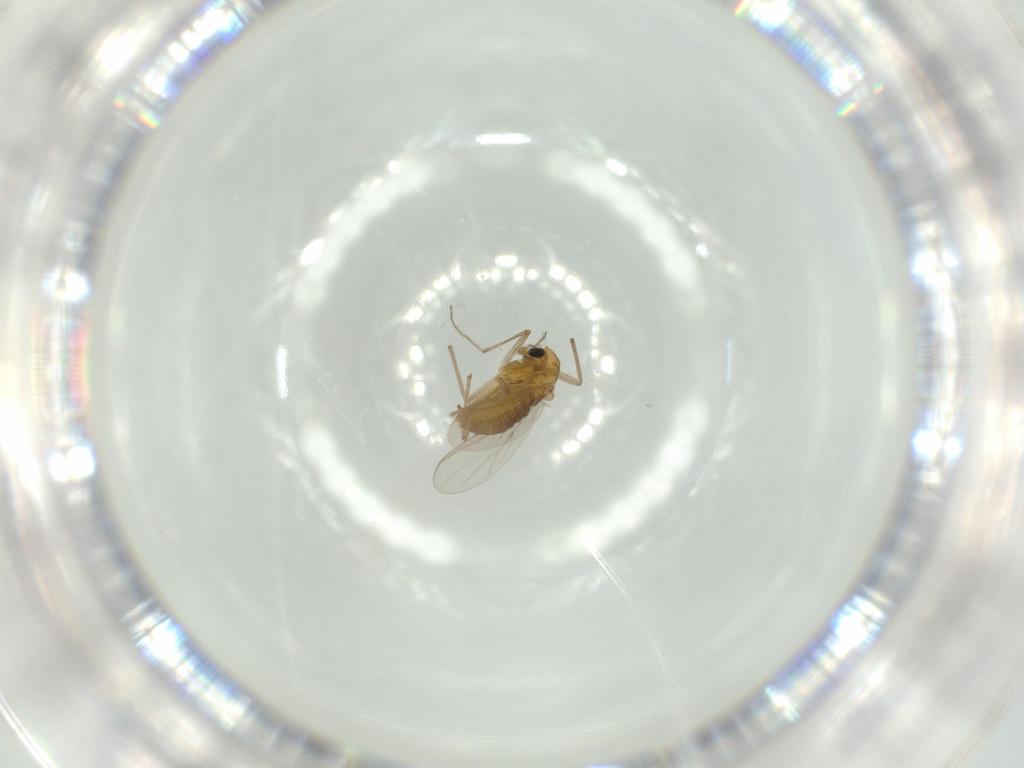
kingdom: Animalia
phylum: Arthropoda
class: Insecta
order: Diptera
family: Chironomidae
